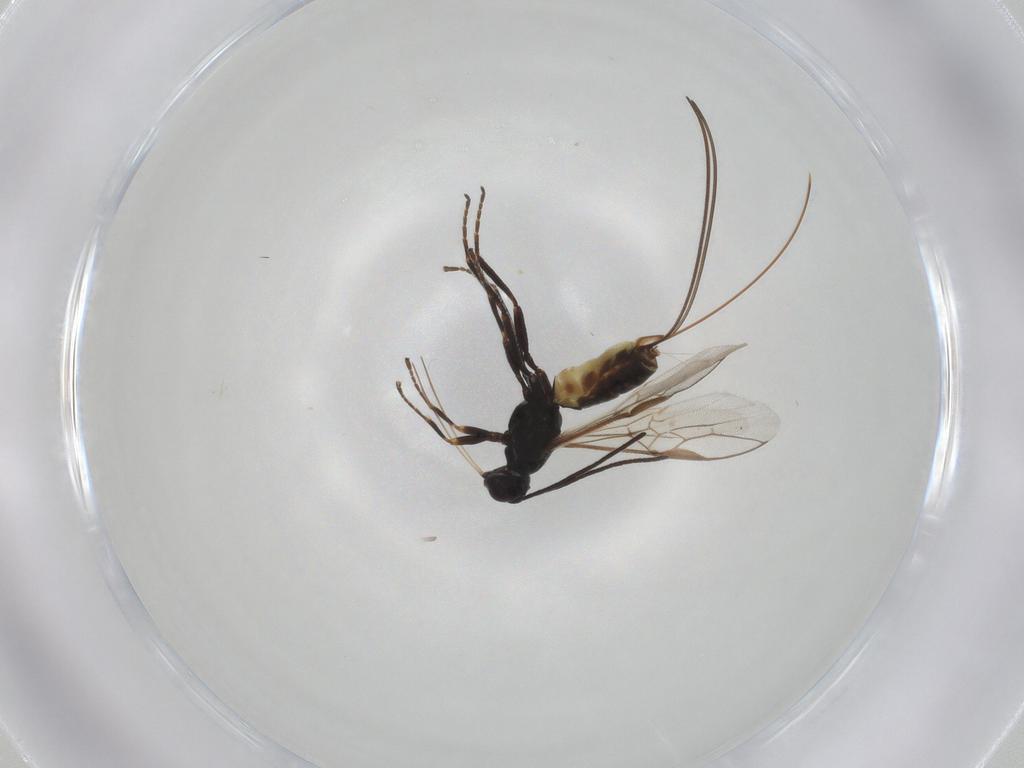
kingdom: Animalia
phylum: Arthropoda
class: Insecta
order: Hymenoptera
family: Braconidae
